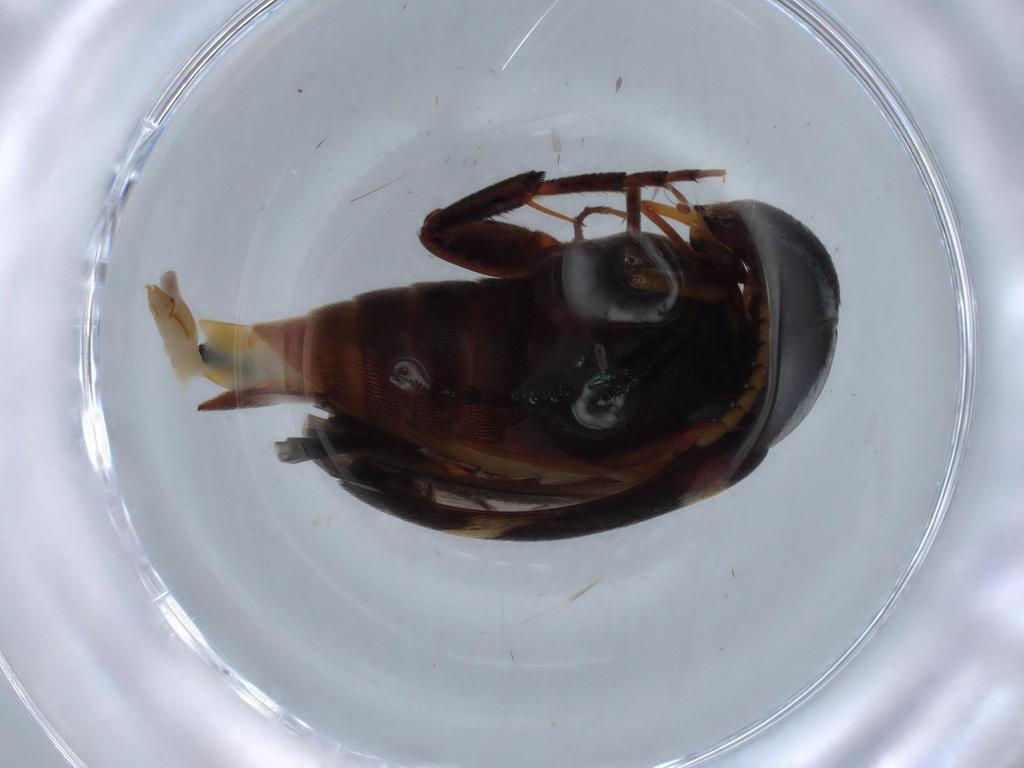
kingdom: Animalia
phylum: Arthropoda
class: Insecta
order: Coleoptera
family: Mordellidae
